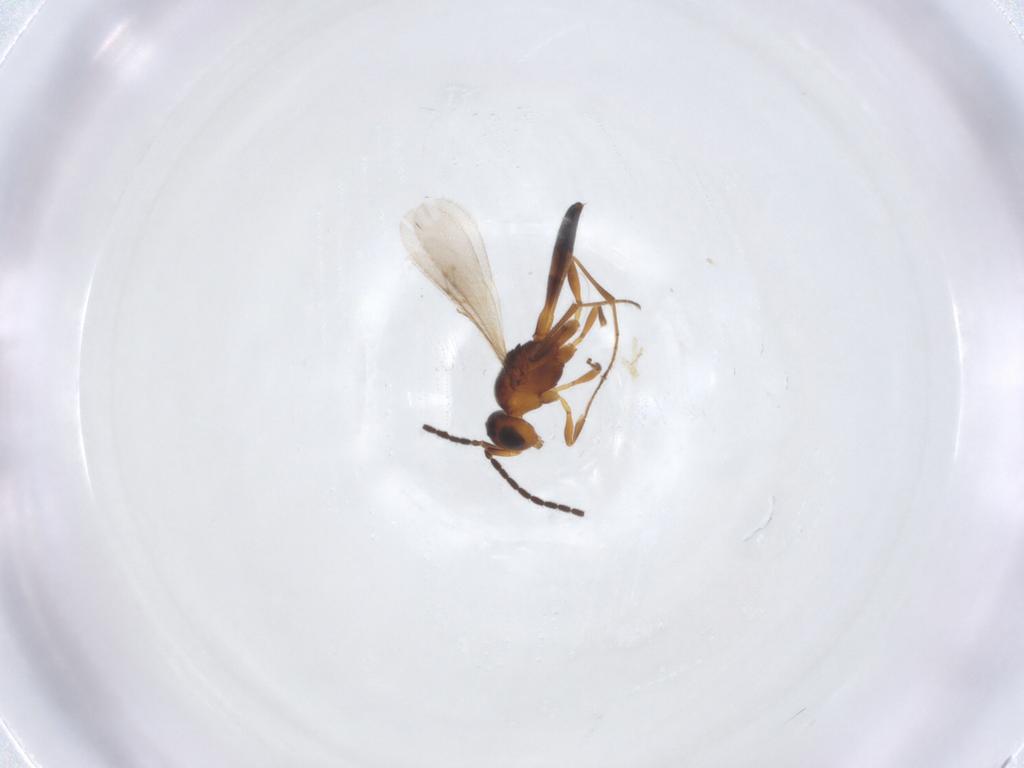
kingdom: Animalia
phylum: Arthropoda
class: Insecta
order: Hymenoptera
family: Scelionidae
